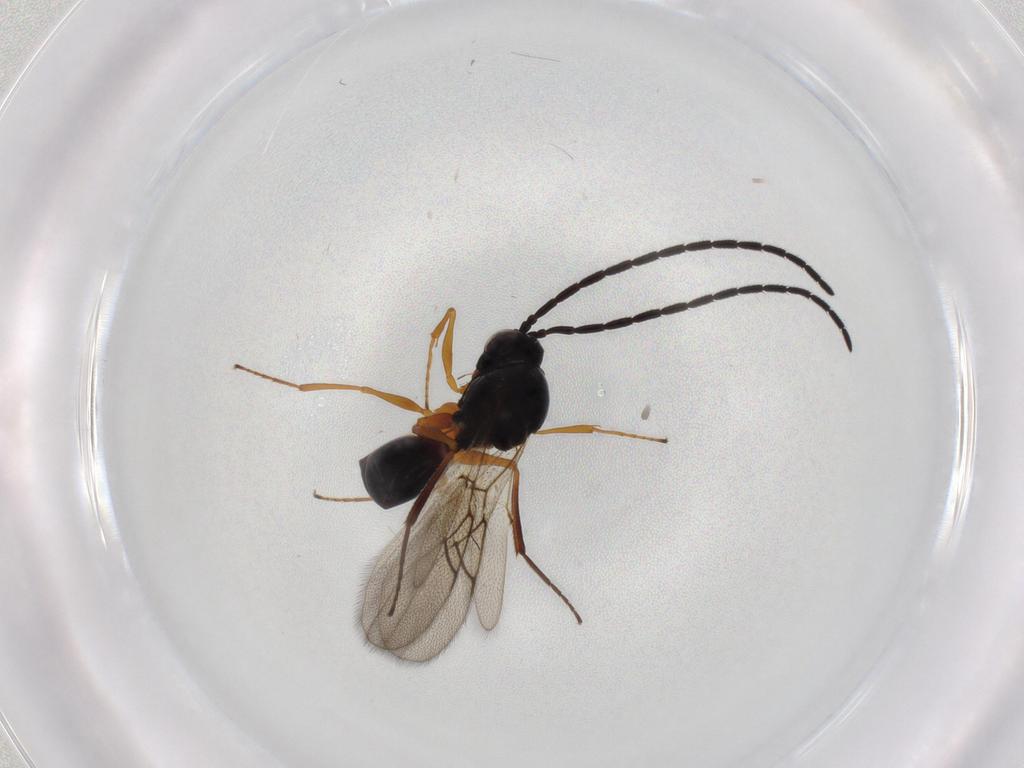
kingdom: Animalia
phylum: Arthropoda
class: Insecta
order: Hymenoptera
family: Figitidae
